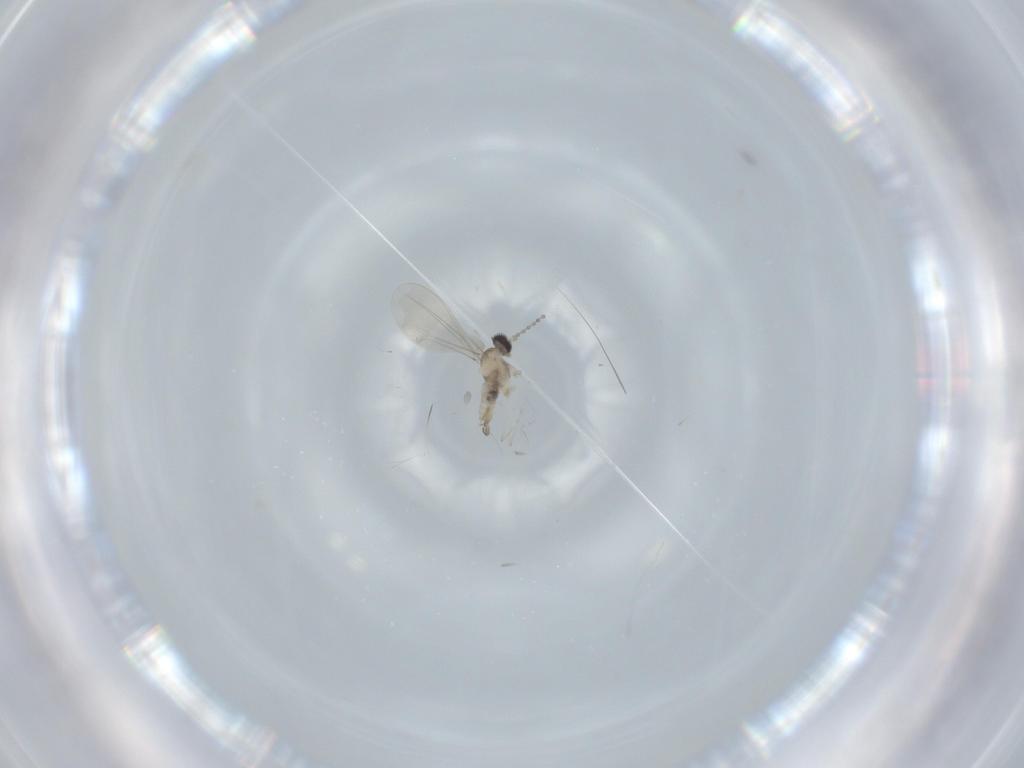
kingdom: Animalia
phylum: Arthropoda
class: Insecta
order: Diptera
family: Cecidomyiidae
